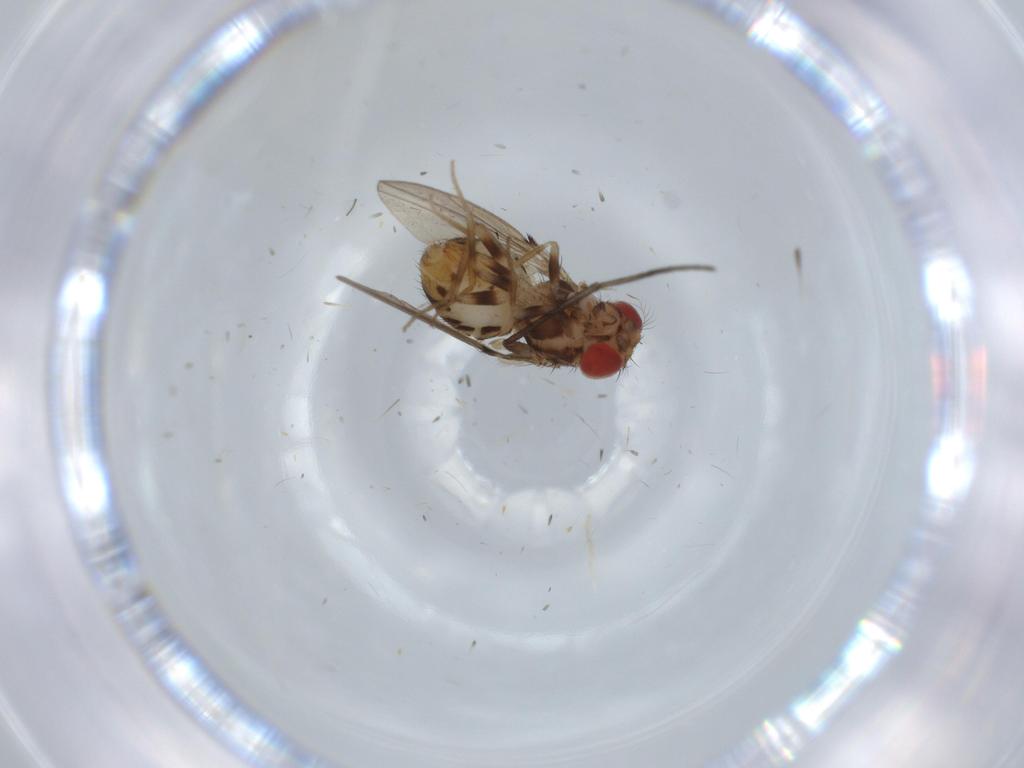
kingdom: Animalia
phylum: Arthropoda
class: Insecta
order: Diptera
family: Drosophilidae
